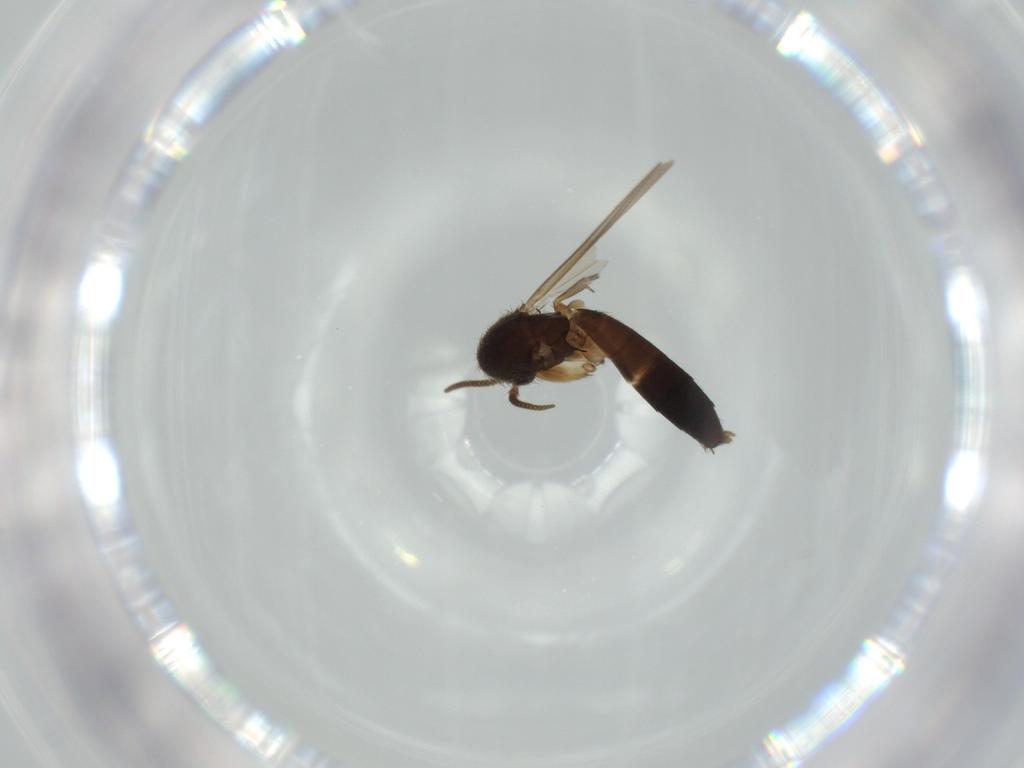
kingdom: Animalia
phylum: Arthropoda
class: Insecta
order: Diptera
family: Mycetophilidae
